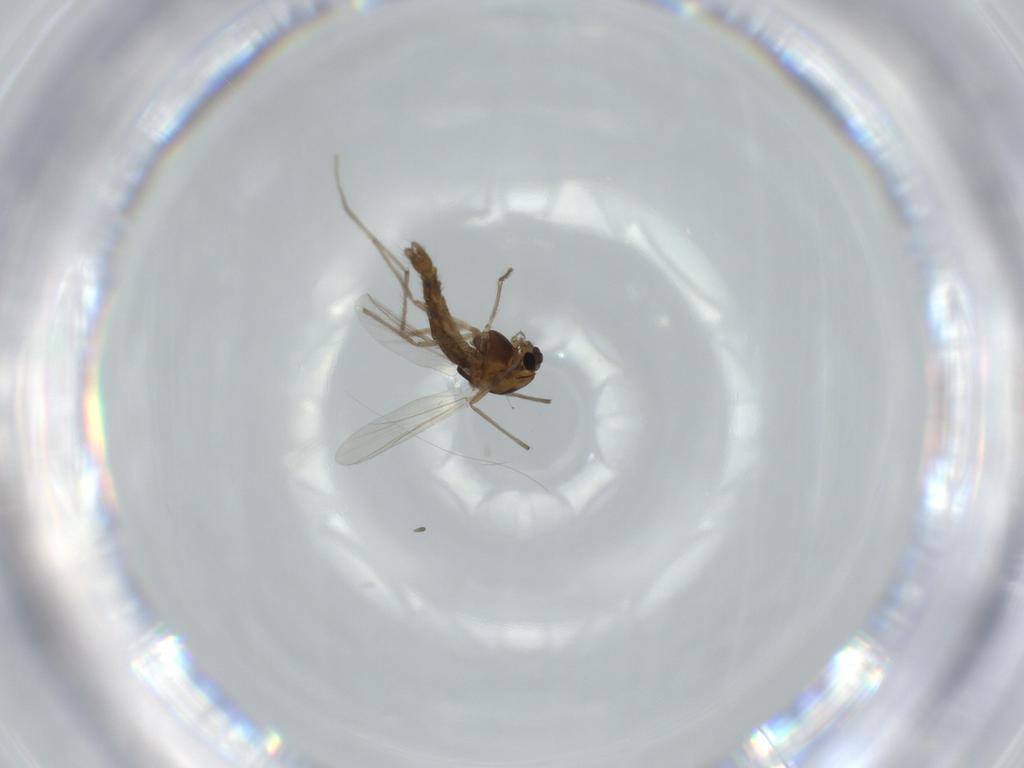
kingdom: Animalia
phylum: Arthropoda
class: Insecta
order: Diptera
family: Chironomidae
